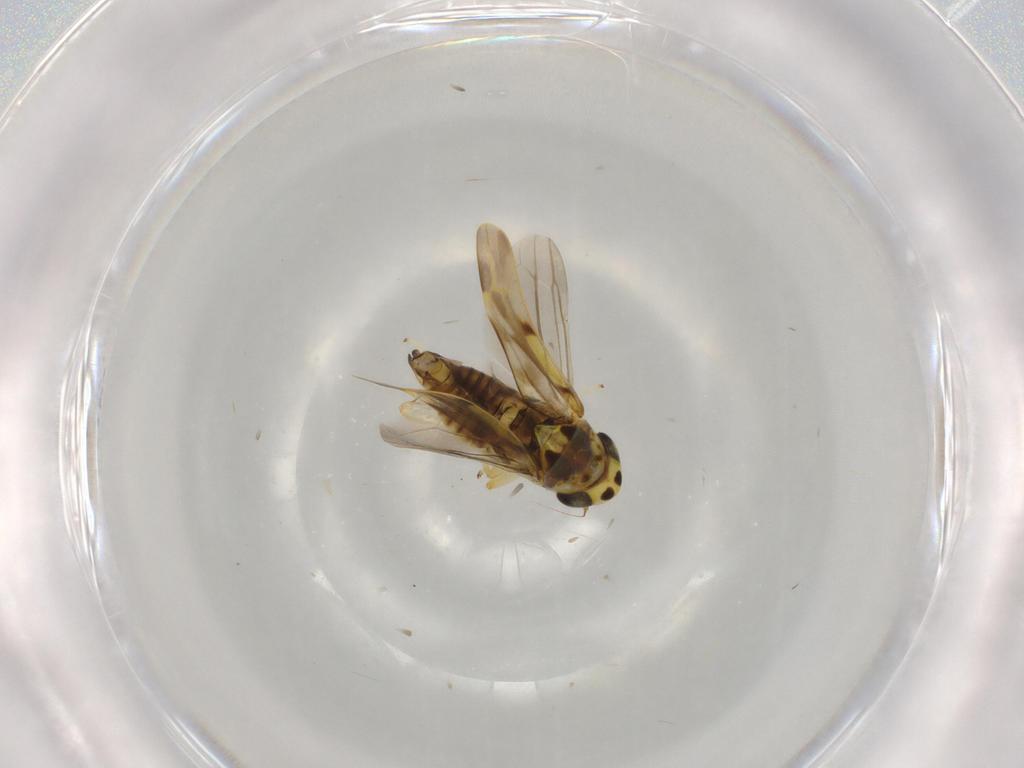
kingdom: Animalia
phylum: Arthropoda
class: Insecta
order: Hemiptera
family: Cicadellidae
